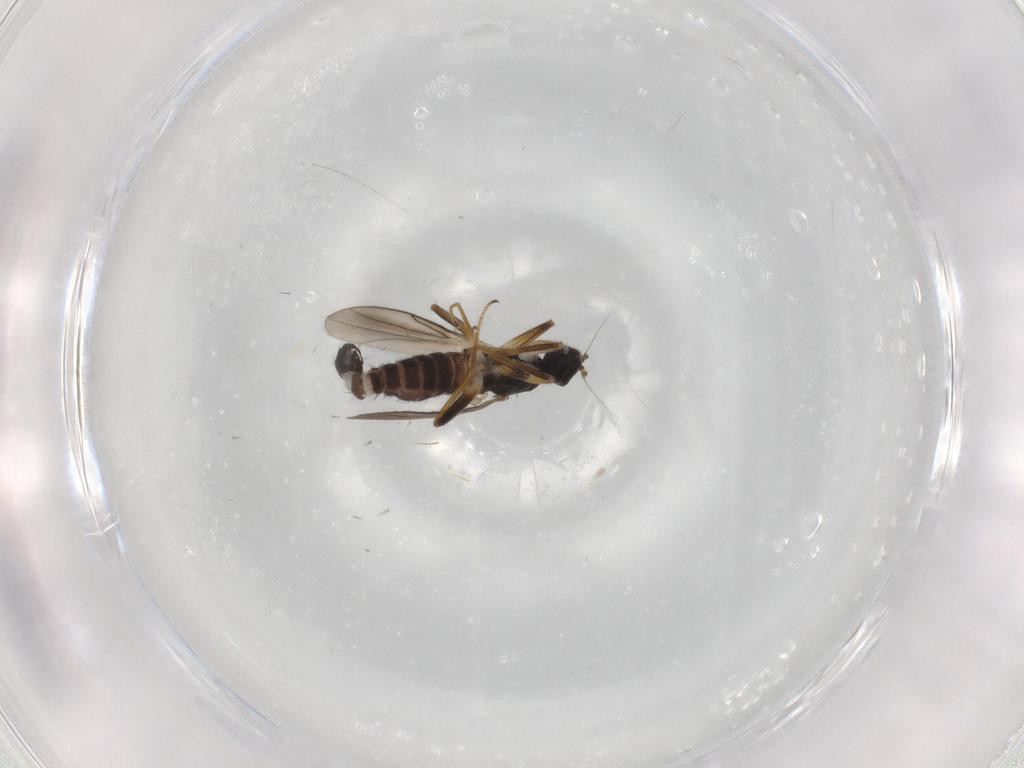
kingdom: Animalia
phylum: Arthropoda
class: Insecta
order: Diptera
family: Hybotidae
